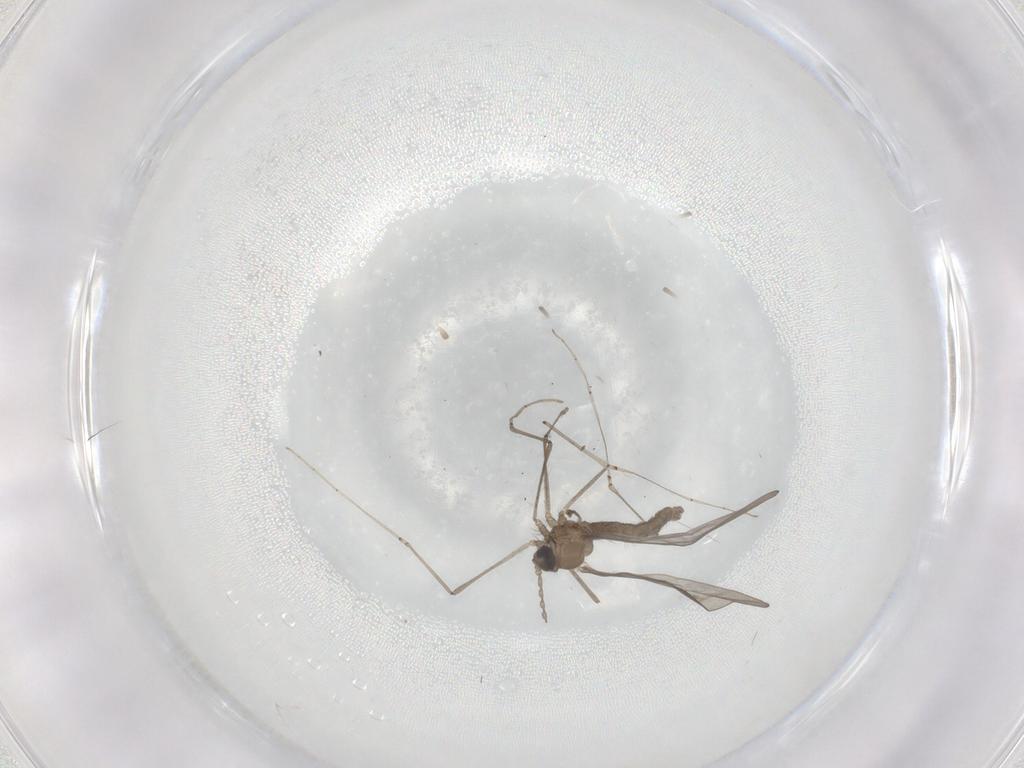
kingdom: Animalia
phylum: Arthropoda
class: Insecta
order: Diptera
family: Cecidomyiidae
